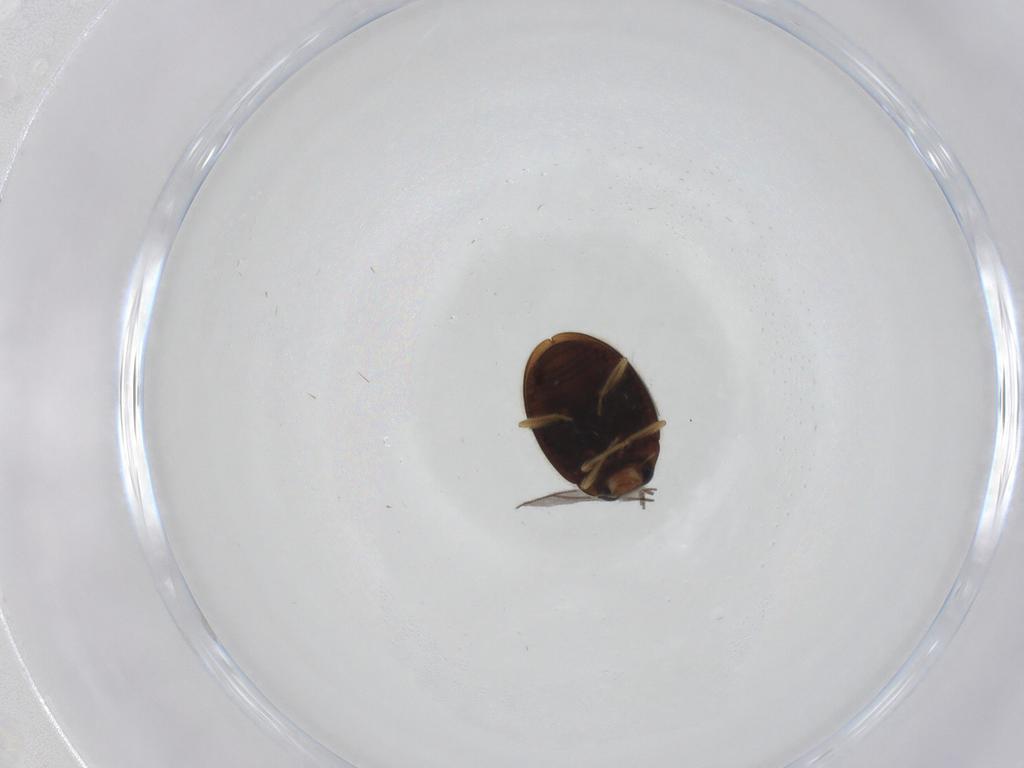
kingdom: Animalia
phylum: Arthropoda
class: Insecta
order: Coleoptera
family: Coccinellidae
